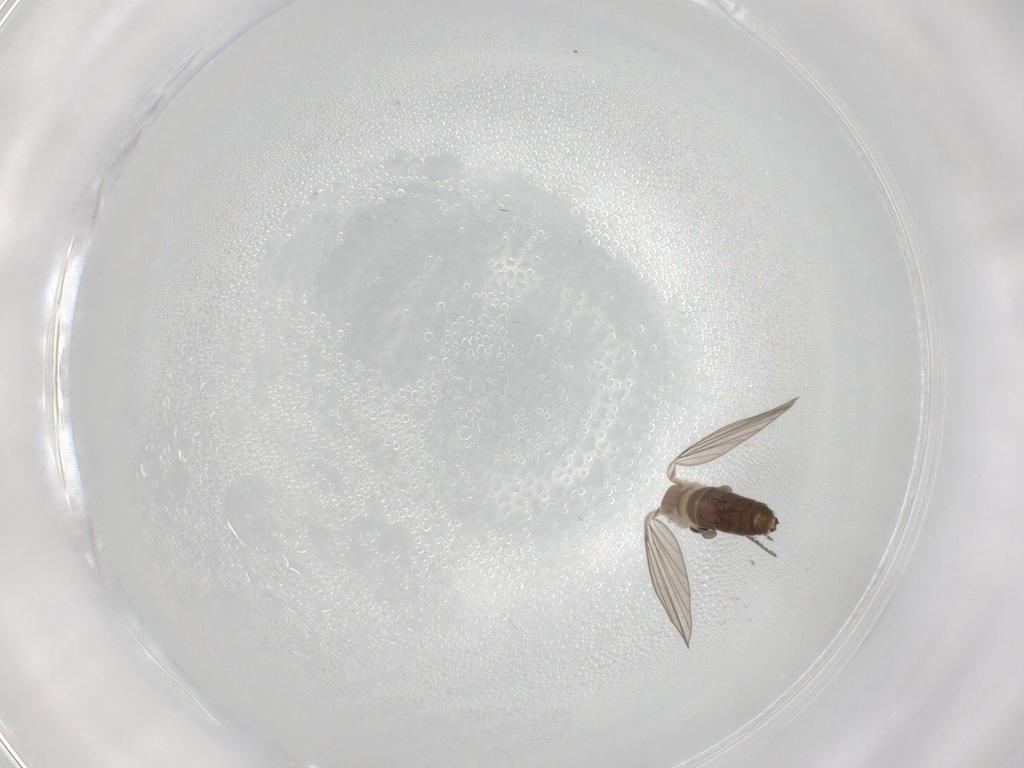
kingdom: Animalia
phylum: Arthropoda
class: Insecta
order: Diptera
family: Psychodidae
